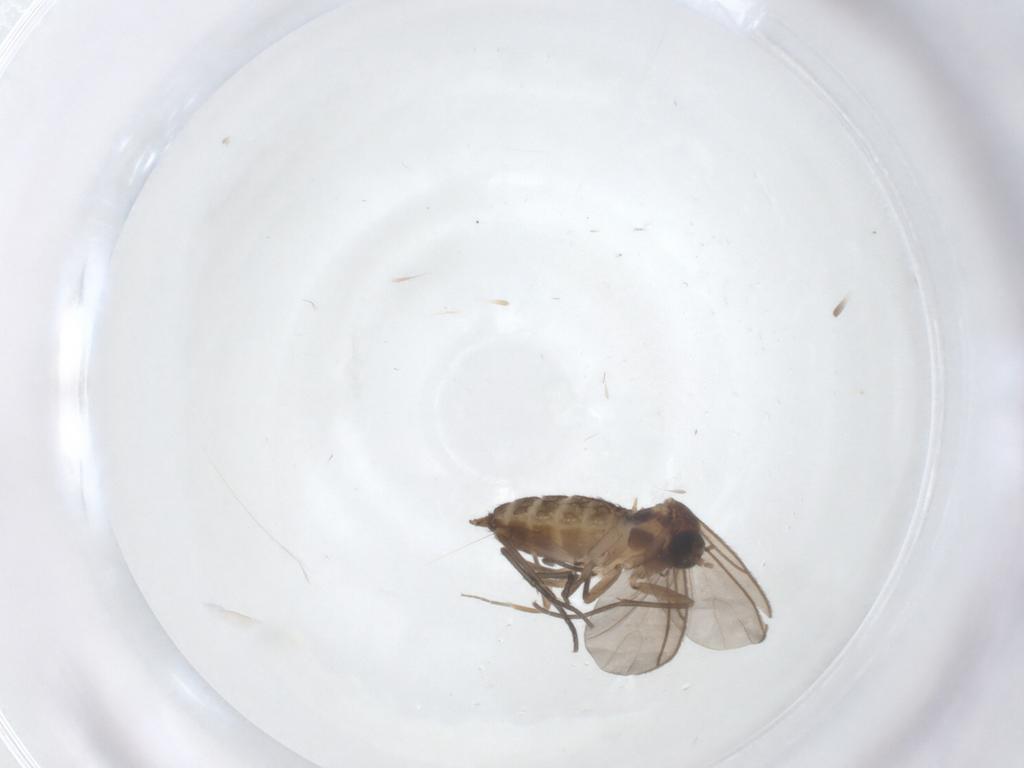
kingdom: Animalia
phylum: Arthropoda
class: Insecta
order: Diptera
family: Phoridae
